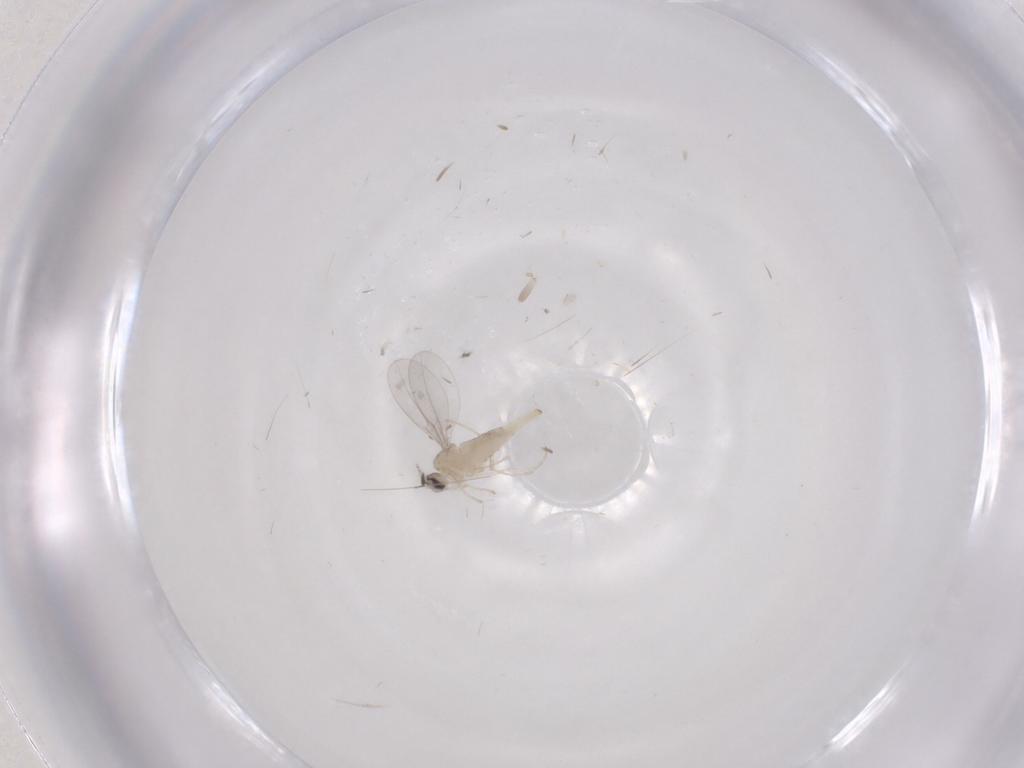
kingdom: Animalia
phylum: Arthropoda
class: Insecta
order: Diptera
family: Cecidomyiidae
